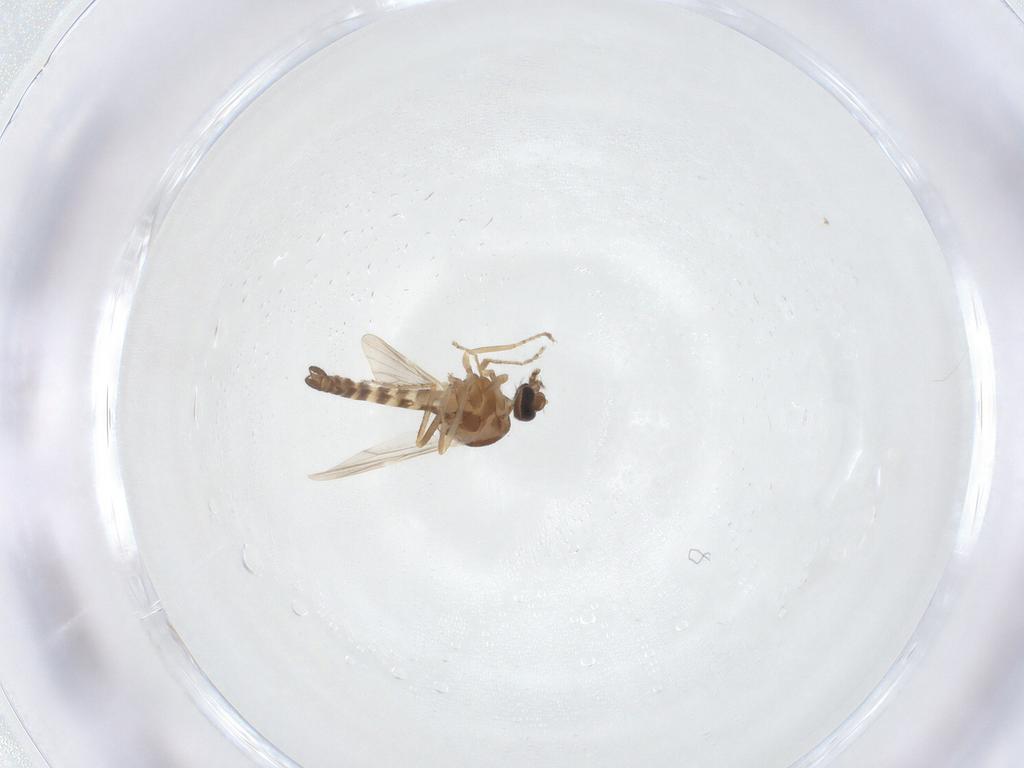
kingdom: Animalia
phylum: Arthropoda
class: Insecta
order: Diptera
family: Ceratopogonidae
